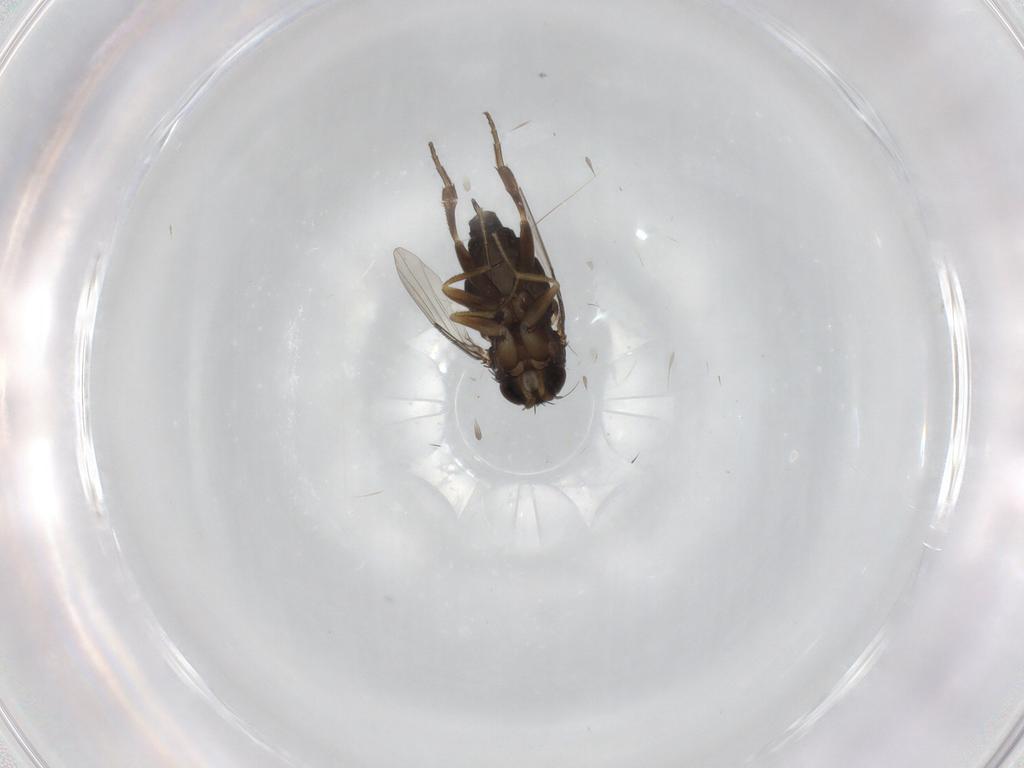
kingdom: Animalia
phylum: Arthropoda
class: Insecta
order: Diptera
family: Phoridae
